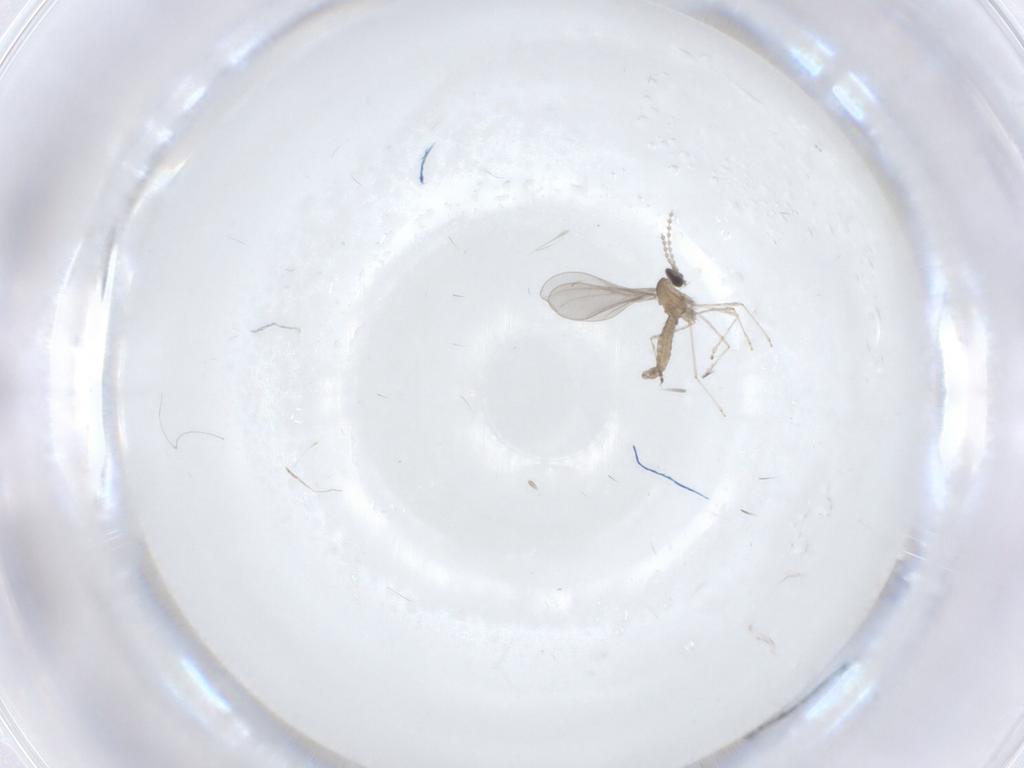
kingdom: Animalia
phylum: Arthropoda
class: Insecta
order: Diptera
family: Cecidomyiidae
